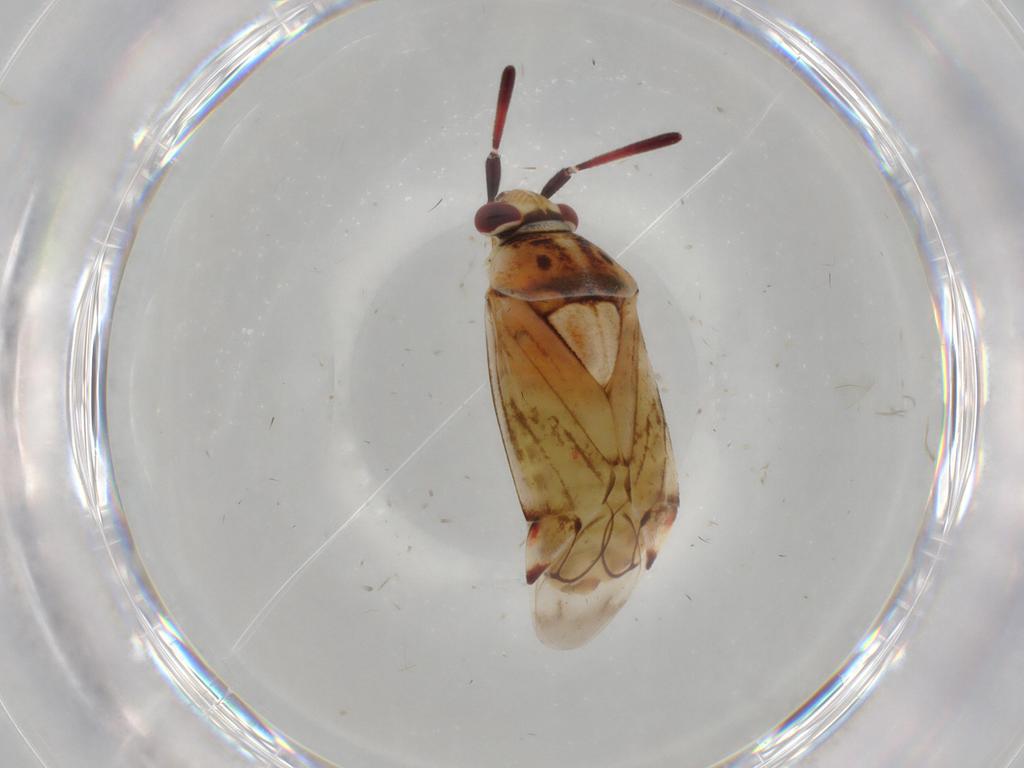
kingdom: Animalia
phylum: Arthropoda
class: Insecta
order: Hemiptera
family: Miridae
